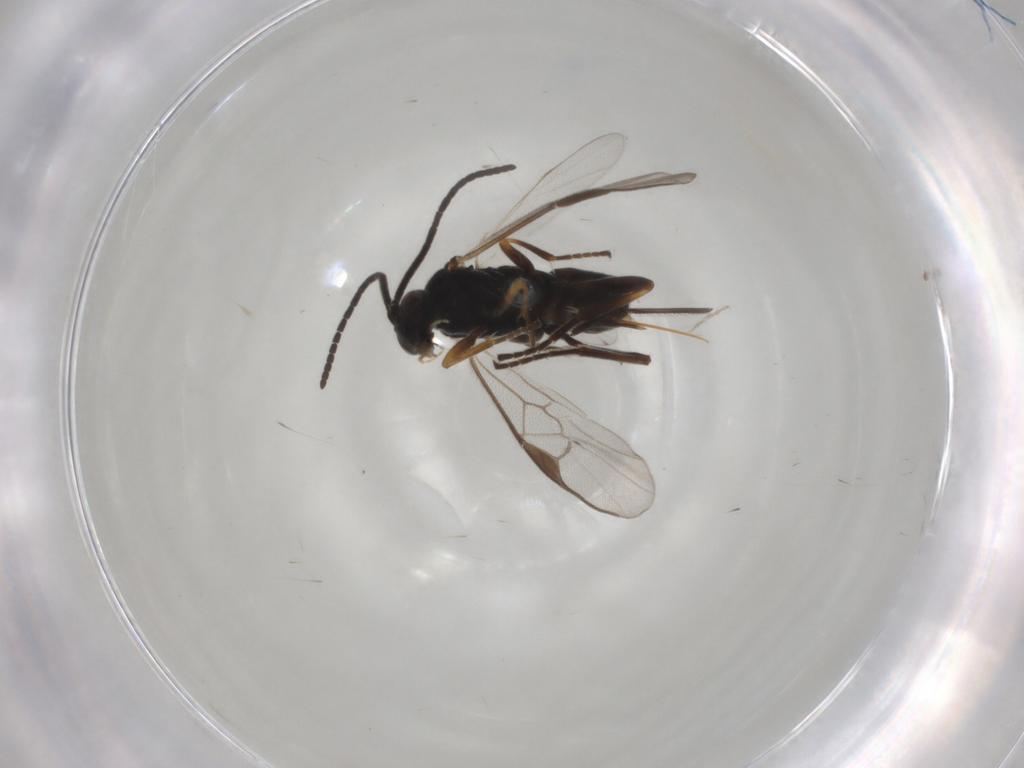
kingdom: Animalia
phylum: Arthropoda
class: Insecta
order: Hymenoptera
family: Braconidae
